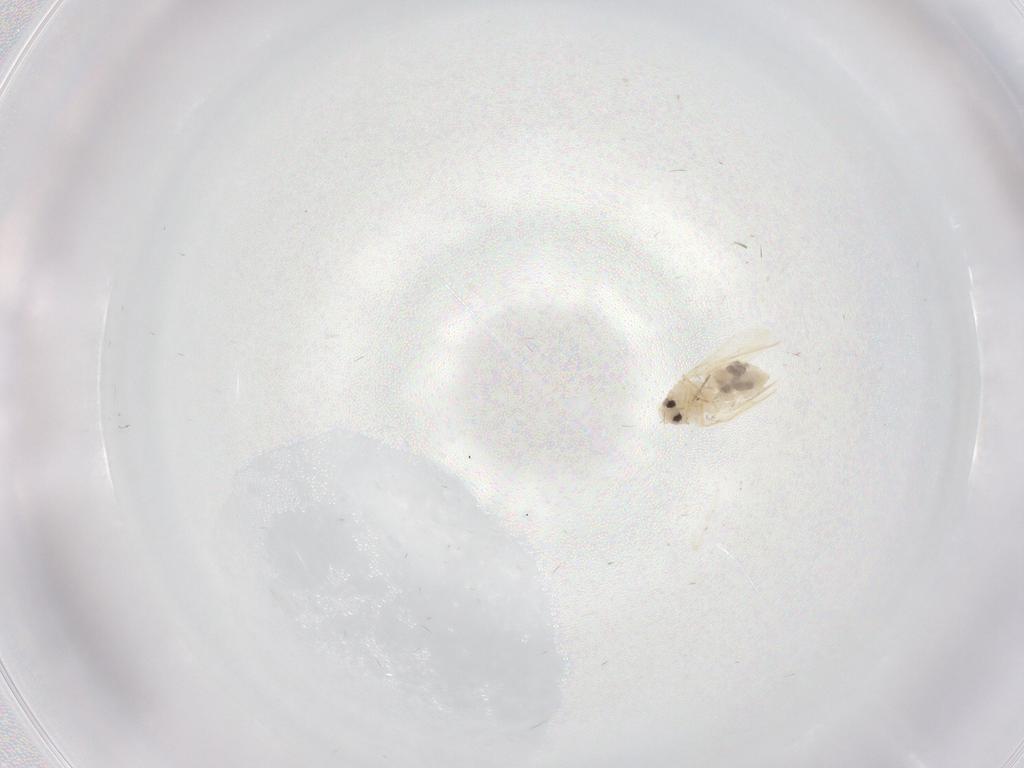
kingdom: Animalia
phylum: Arthropoda
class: Insecta
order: Hemiptera
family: Aleyrodidae
